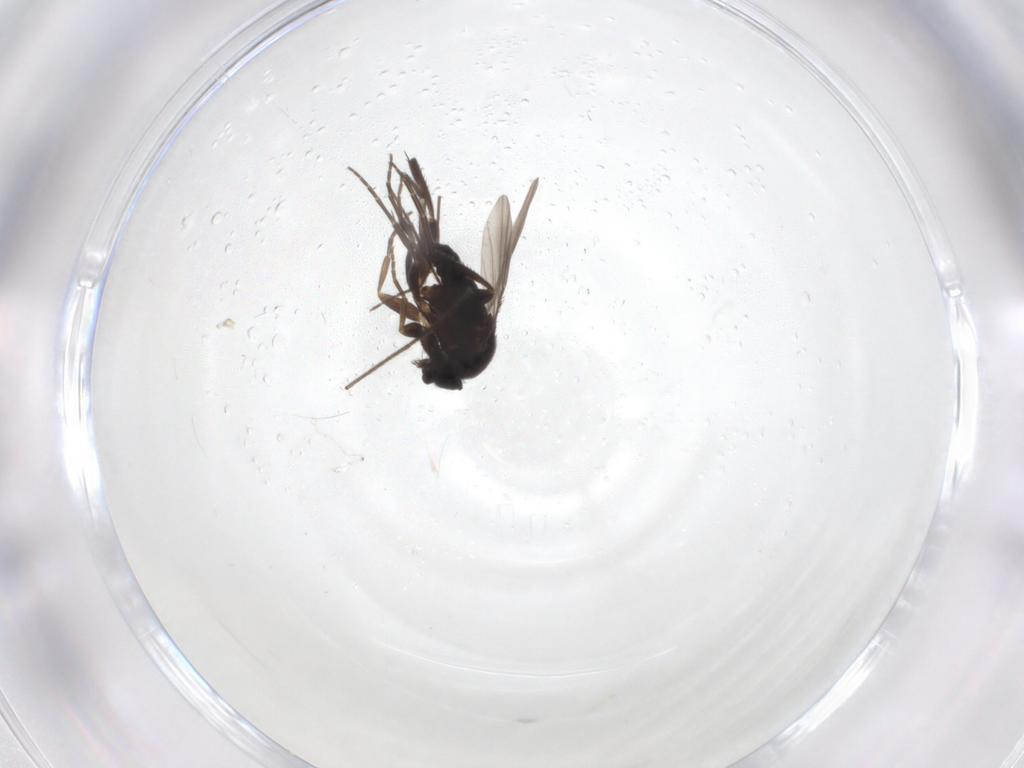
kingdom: Animalia
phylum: Arthropoda
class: Insecta
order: Diptera
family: Phoridae
